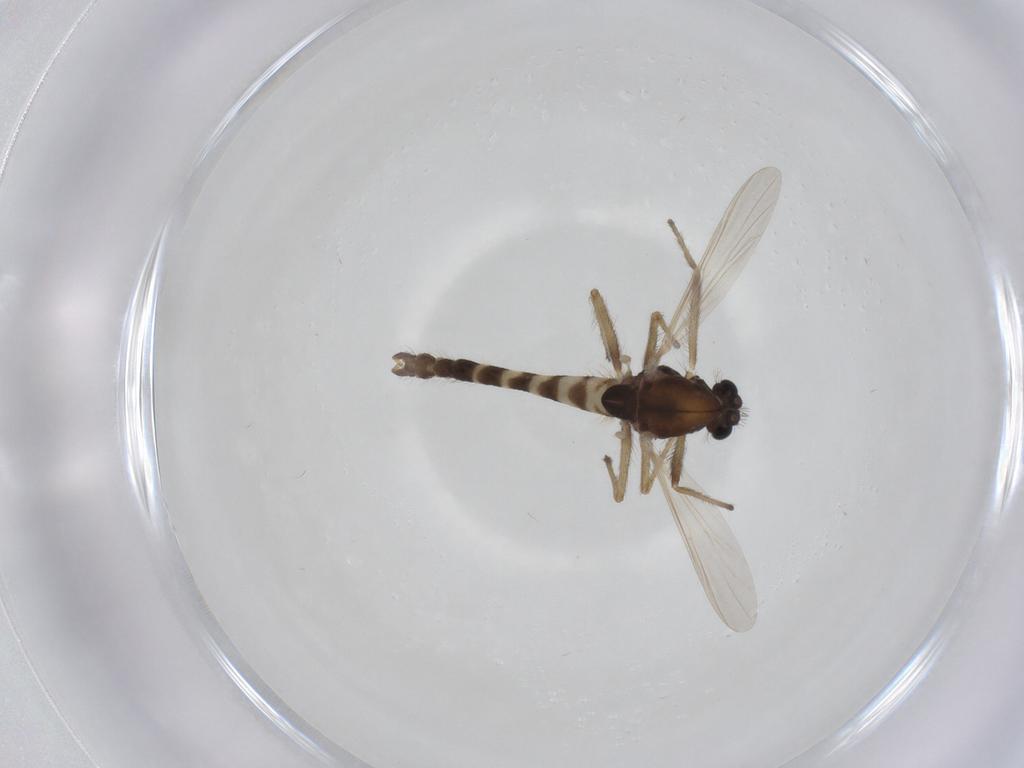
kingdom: Animalia
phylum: Arthropoda
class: Insecta
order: Diptera
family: Chironomidae
